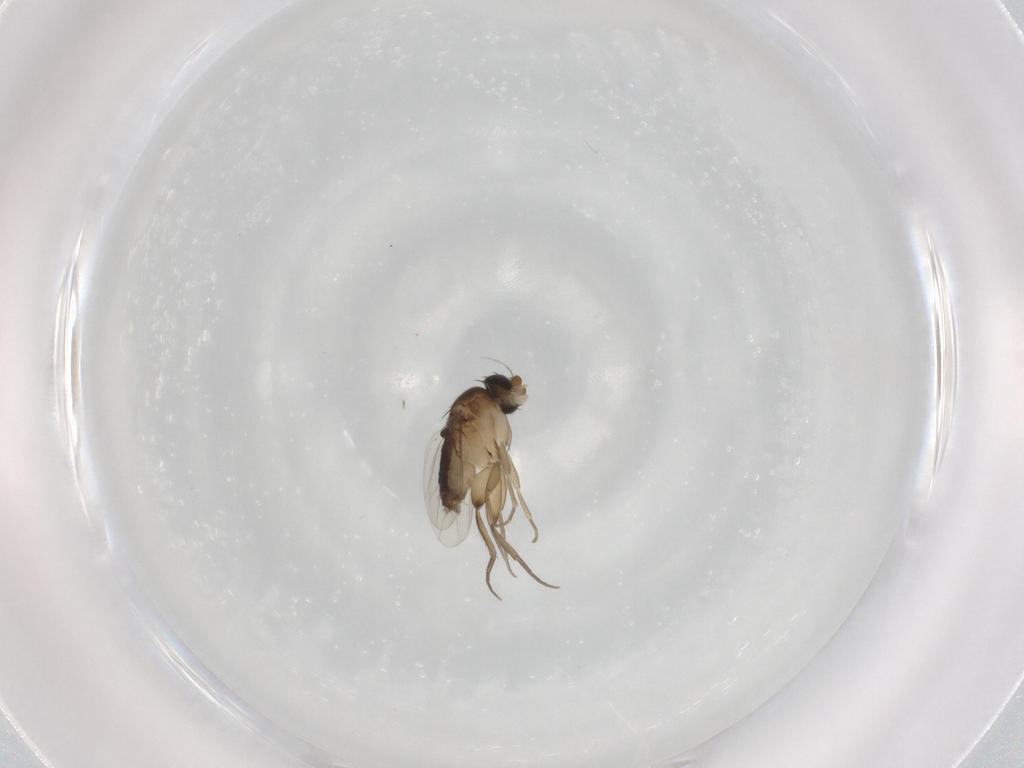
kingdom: Animalia
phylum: Arthropoda
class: Insecta
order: Diptera
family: Phoridae
